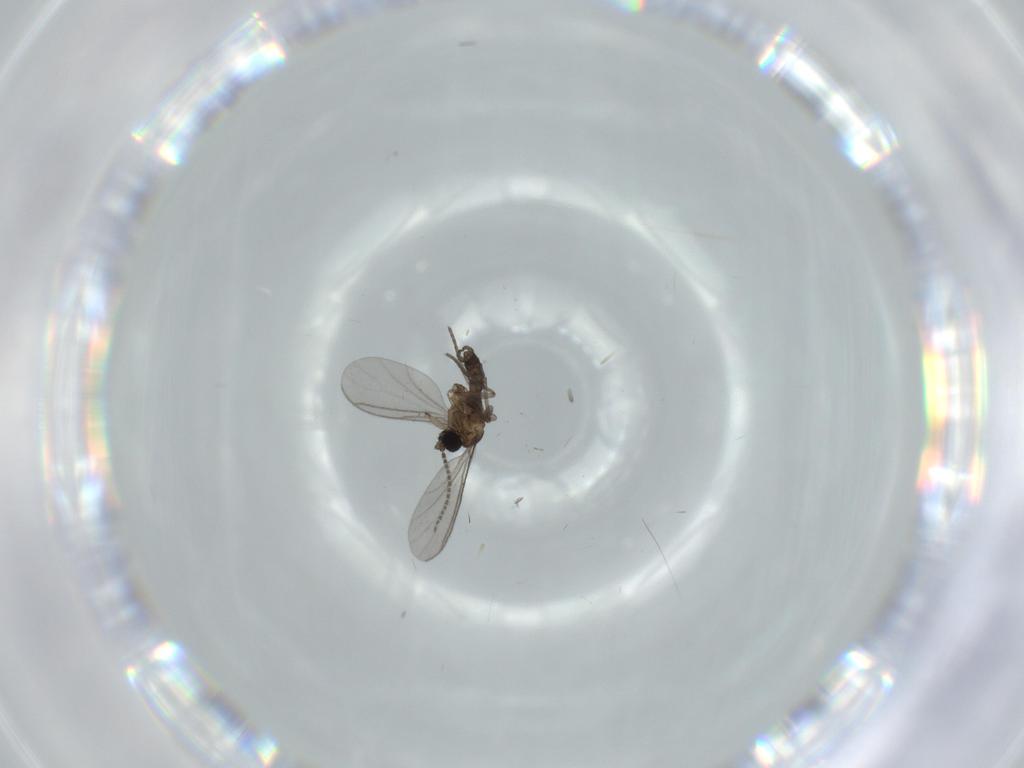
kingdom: Animalia
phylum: Arthropoda
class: Insecta
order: Diptera
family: Phoridae
